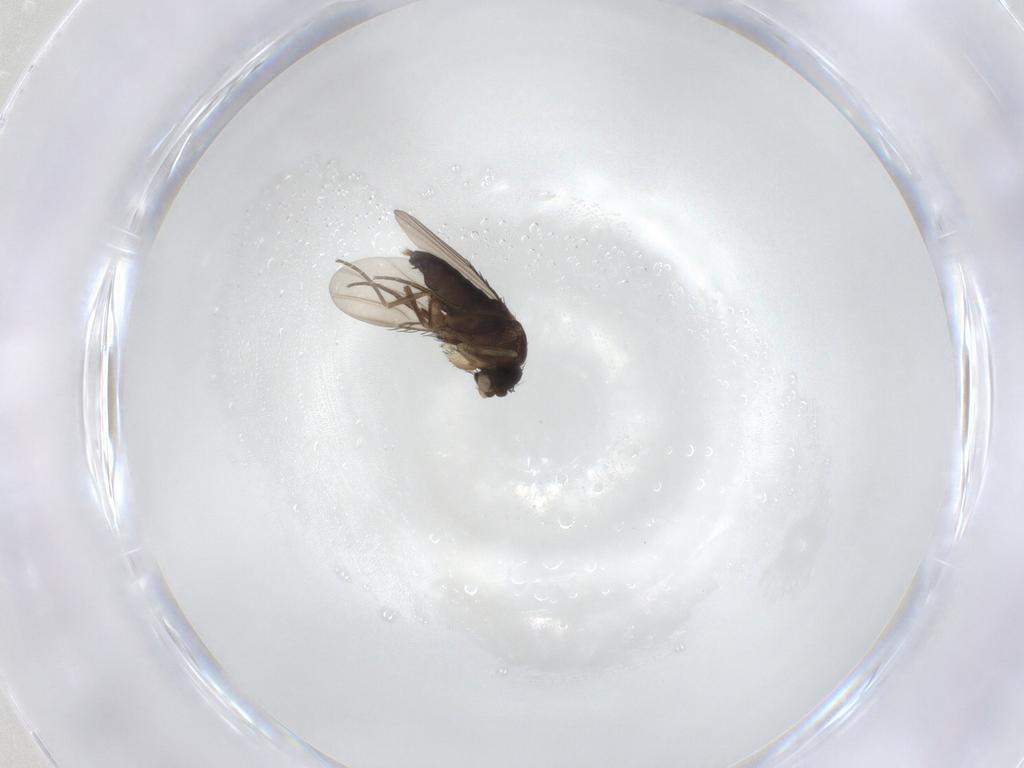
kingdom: Animalia
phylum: Arthropoda
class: Insecta
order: Diptera
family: Phoridae
